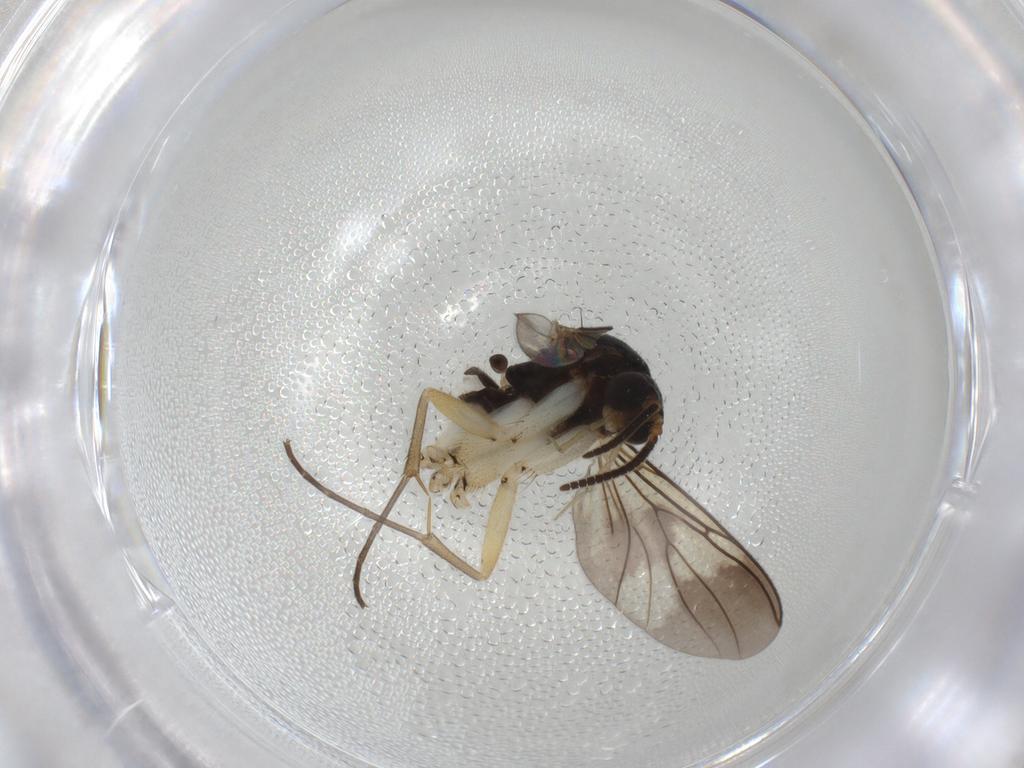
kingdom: Animalia
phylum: Arthropoda
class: Insecta
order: Diptera
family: Mycetophilidae
